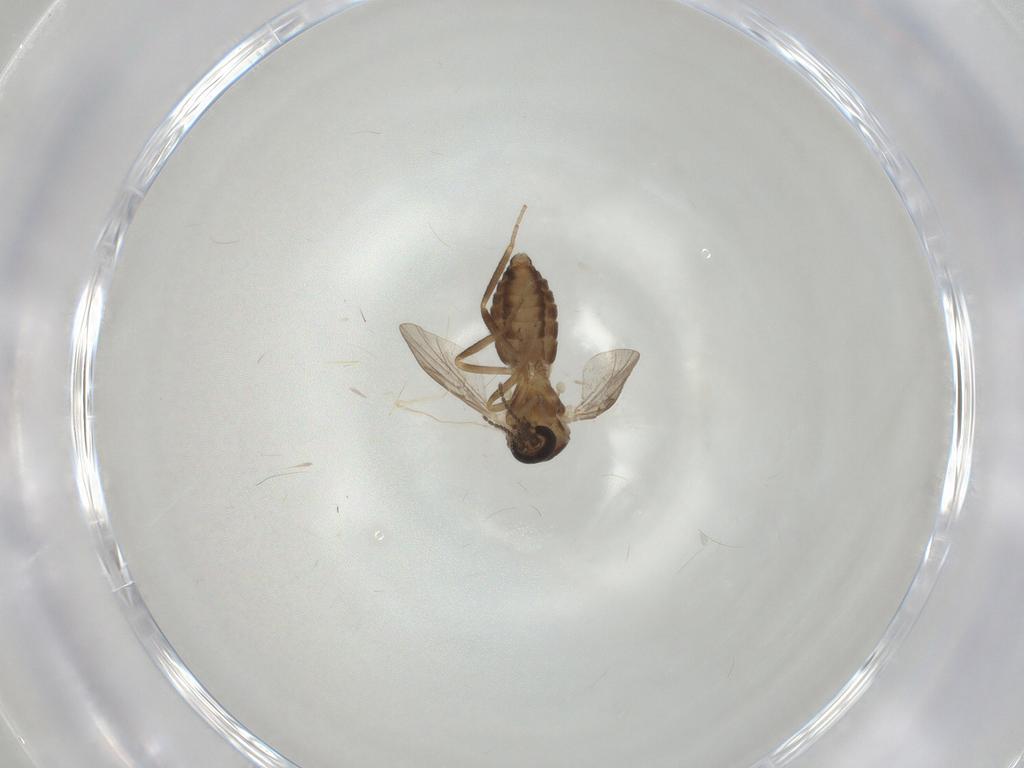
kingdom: Animalia
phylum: Arthropoda
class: Insecta
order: Diptera
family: Ceratopogonidae
